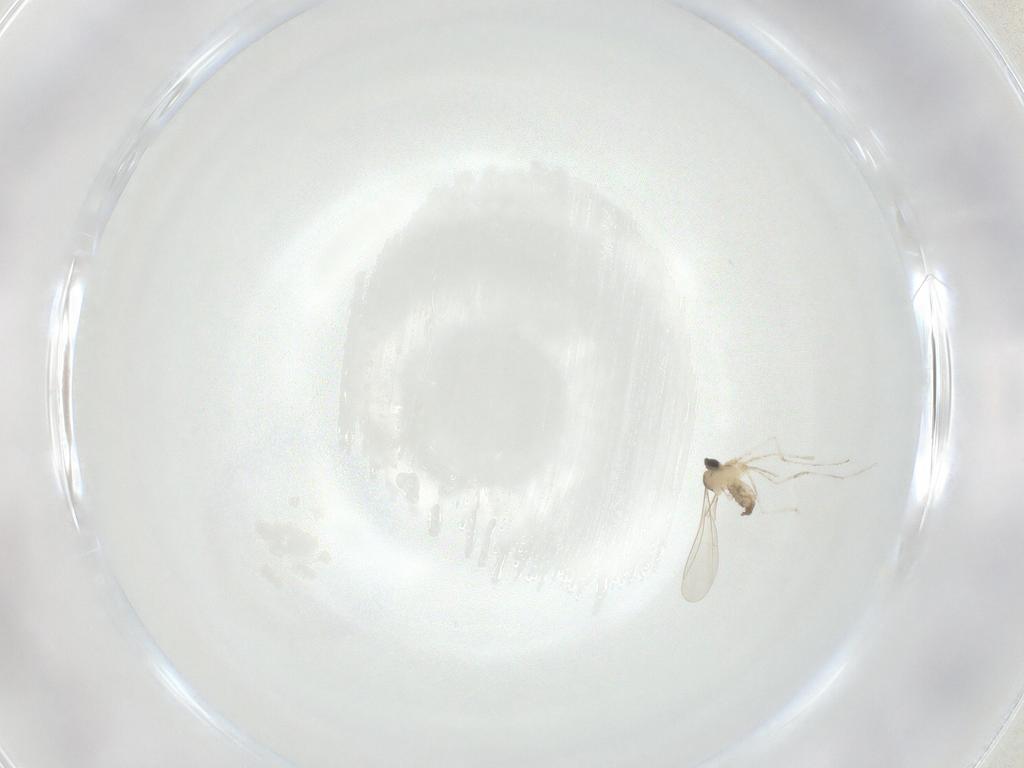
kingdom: Animalia
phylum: Arthropoda
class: Insecta
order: Diptera
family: Cecidomyiidae
